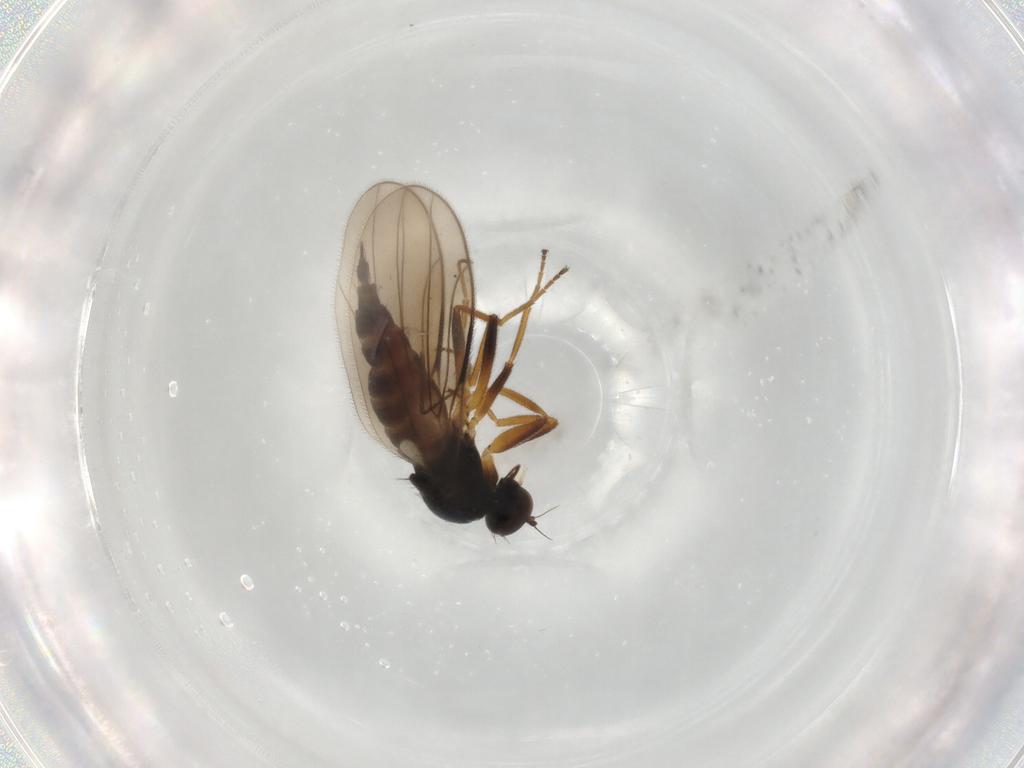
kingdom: Animalia
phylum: Arthropoda
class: Insecta
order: Diptera
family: Hybotidae
